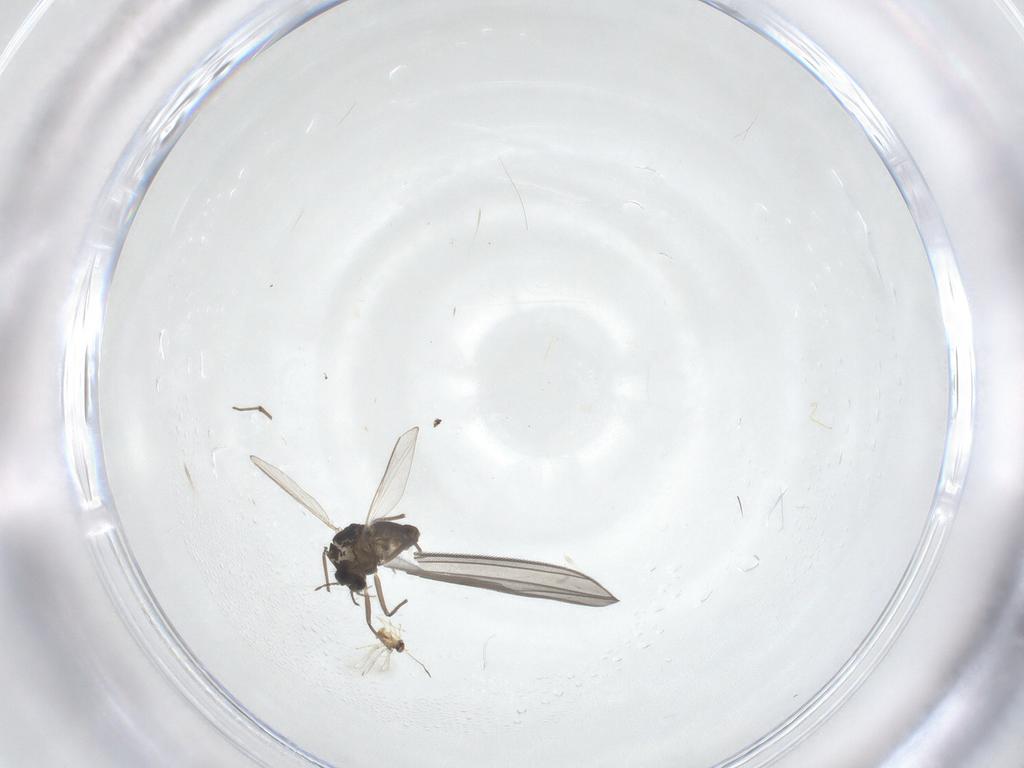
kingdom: Animalia
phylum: Arthropoda
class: Insecta
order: Diptera
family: Chironomidae
